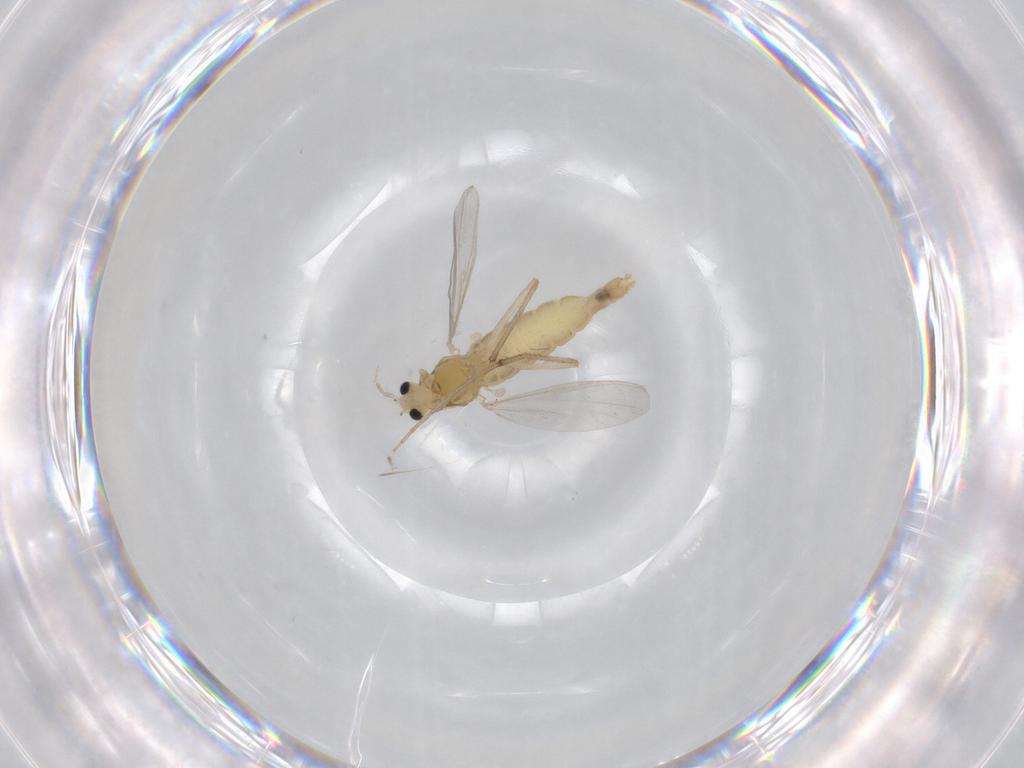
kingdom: Animalia
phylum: Arthropoda
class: Insecta
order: Diptera
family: Chironomidae
